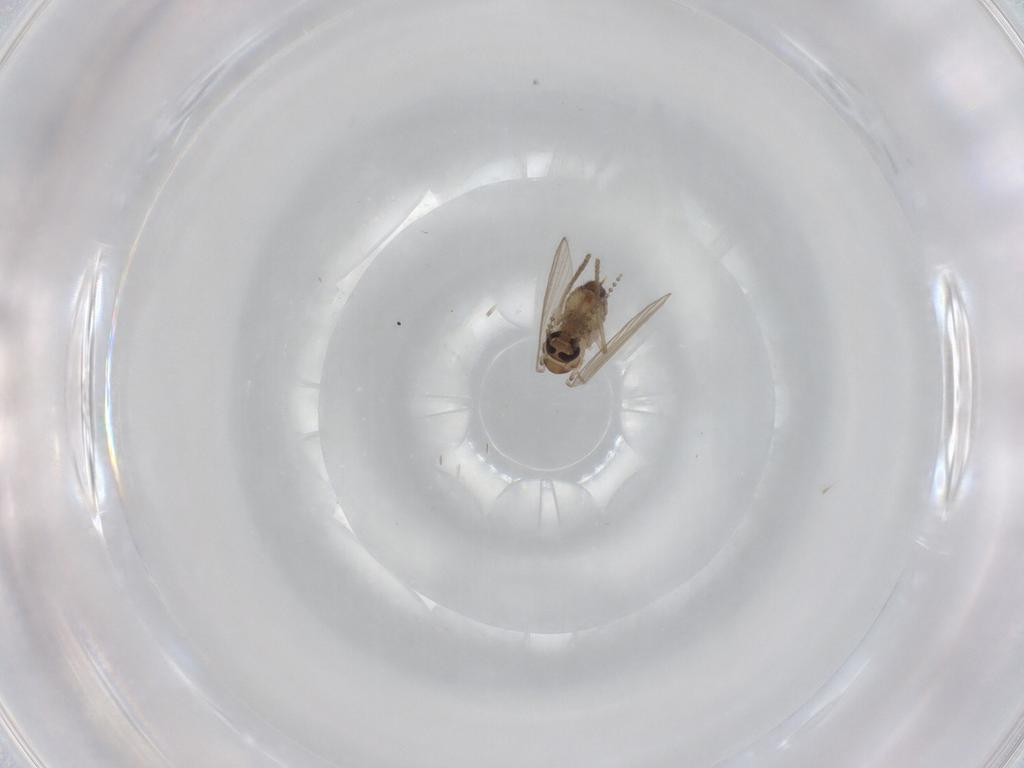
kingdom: Animalia
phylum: Arthropoda
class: Insecta
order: Diptera
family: Psychodidae
